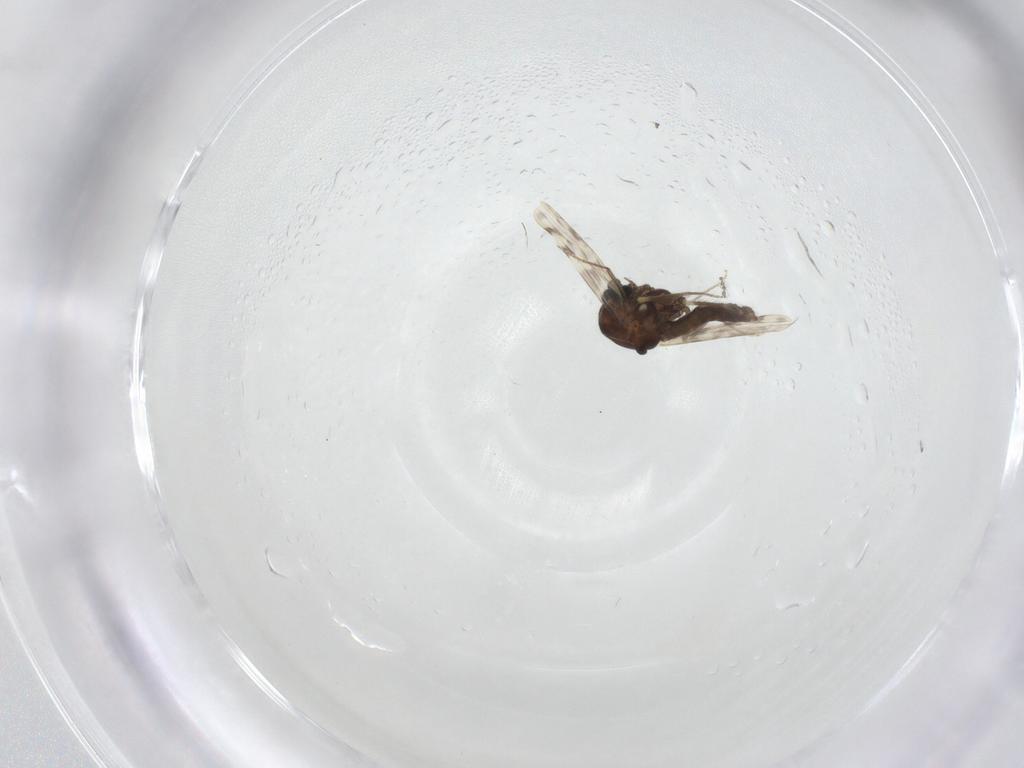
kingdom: Animalia
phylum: Arthropoda
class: Insecta
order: Diptera
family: Ceratopogonidae
